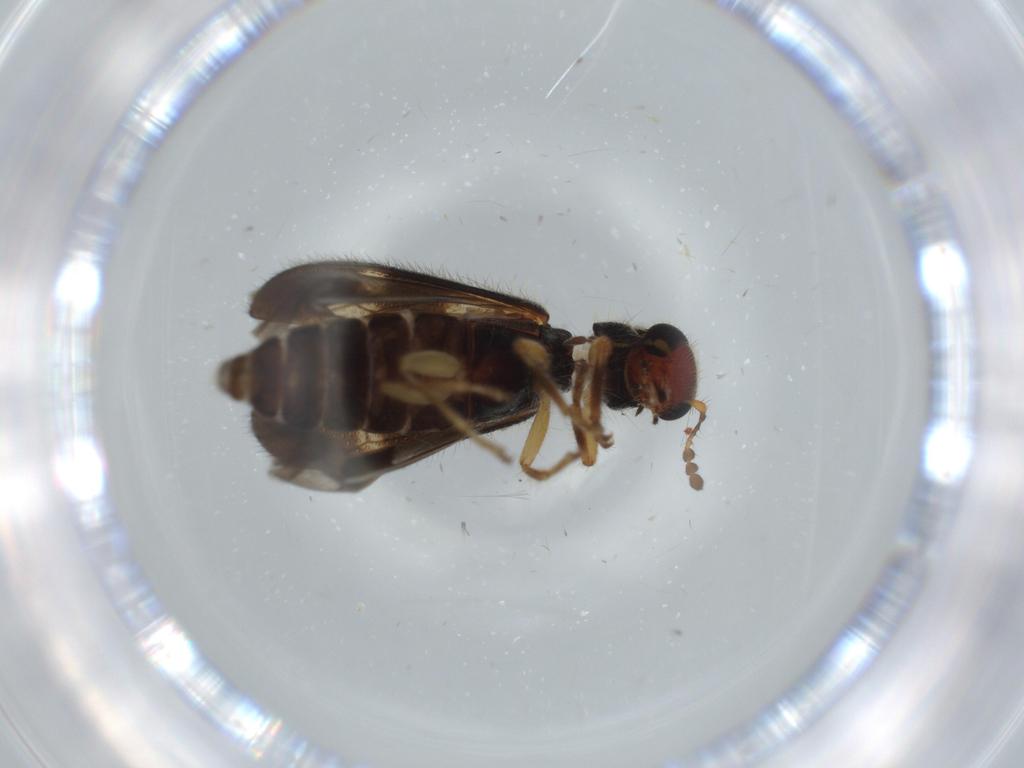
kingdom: Animalia
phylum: Arthropoda
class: Insecta
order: Coleoptera
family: Cleridae
